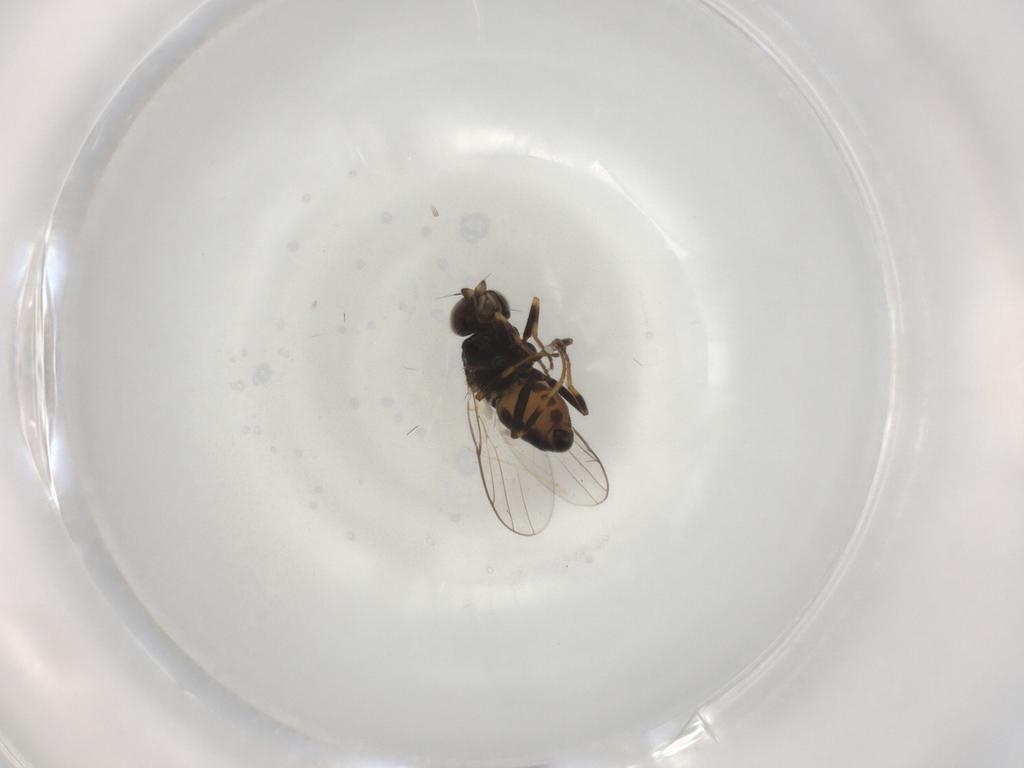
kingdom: Animalia
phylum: Arthropoda
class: Insecta
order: Diptera
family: Chloropidae
